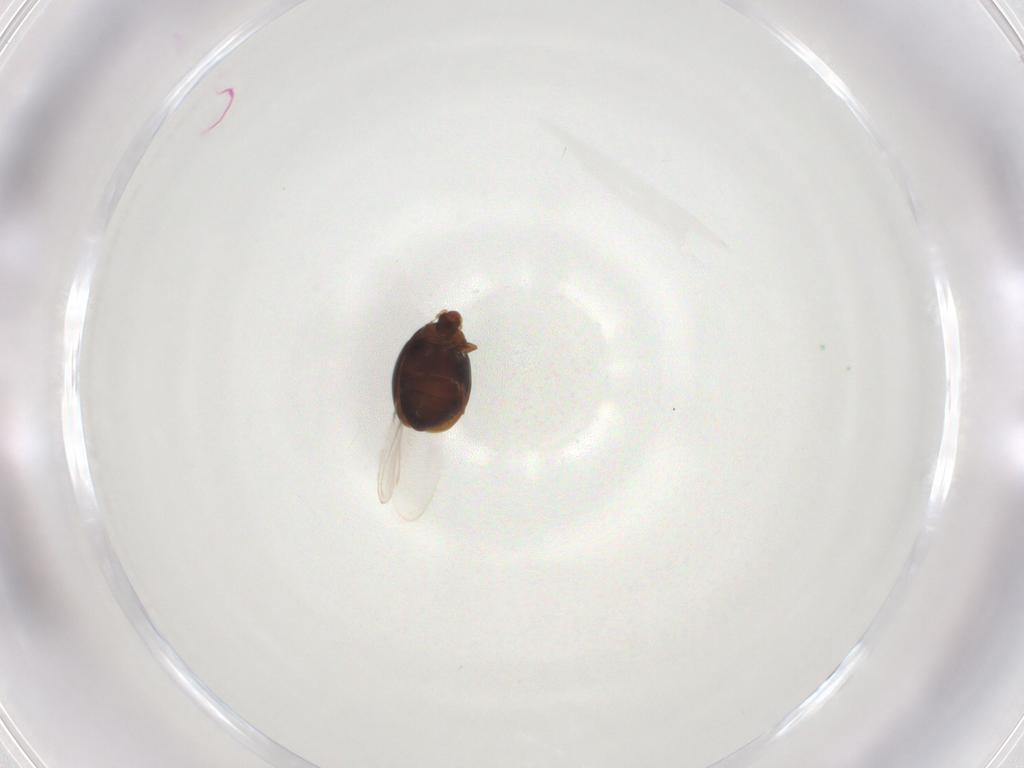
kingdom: Animalia
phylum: Arthropoda
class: Insecta
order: Coleoptera
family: Corylophidae
